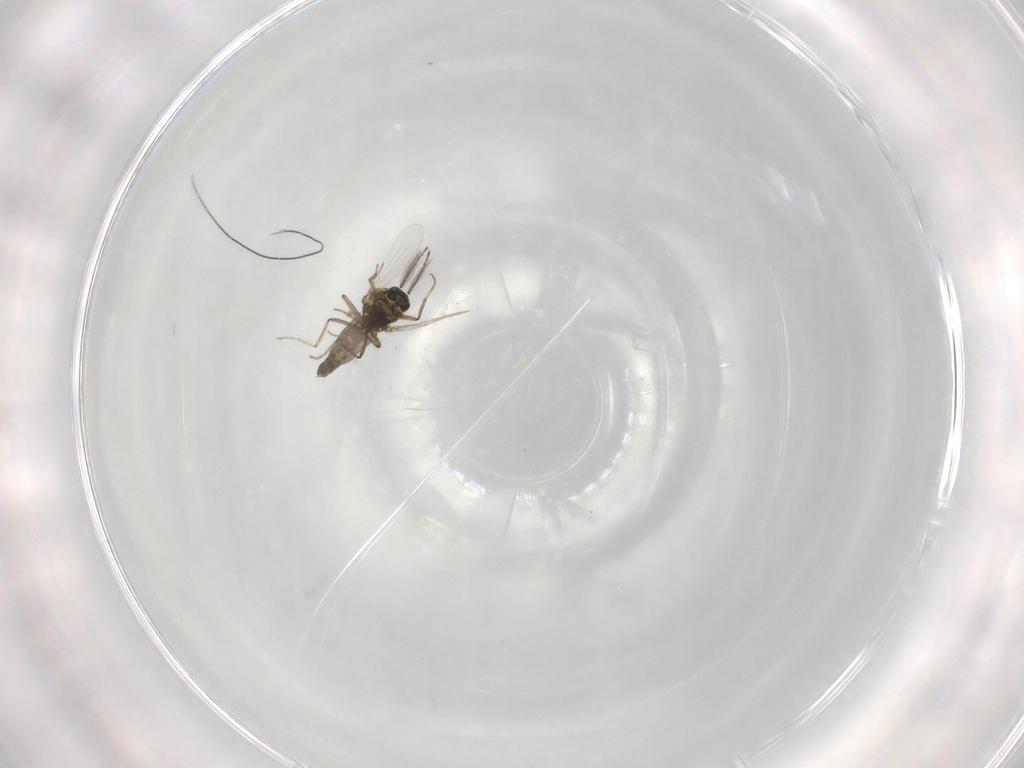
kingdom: Animalia
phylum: Arthropoda
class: Insecta
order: Diptera
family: Ceratopogonidae
